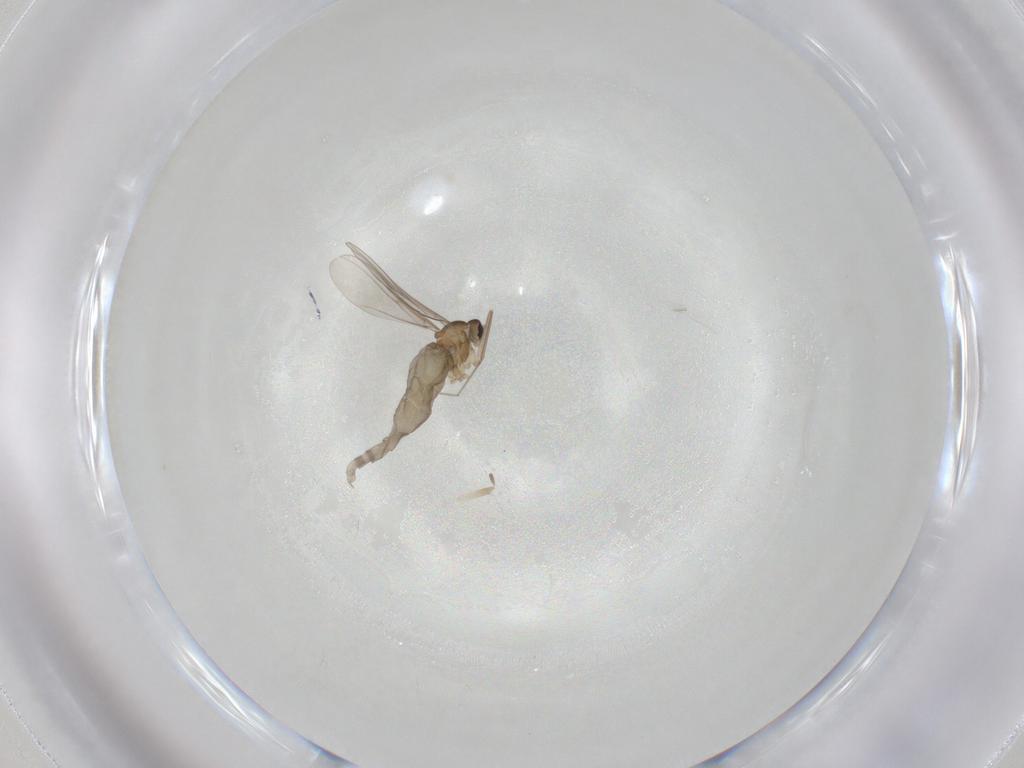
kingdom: Animalia
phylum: Arthropoda
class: Insecta
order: Diptera
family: Cecidomyiidae
